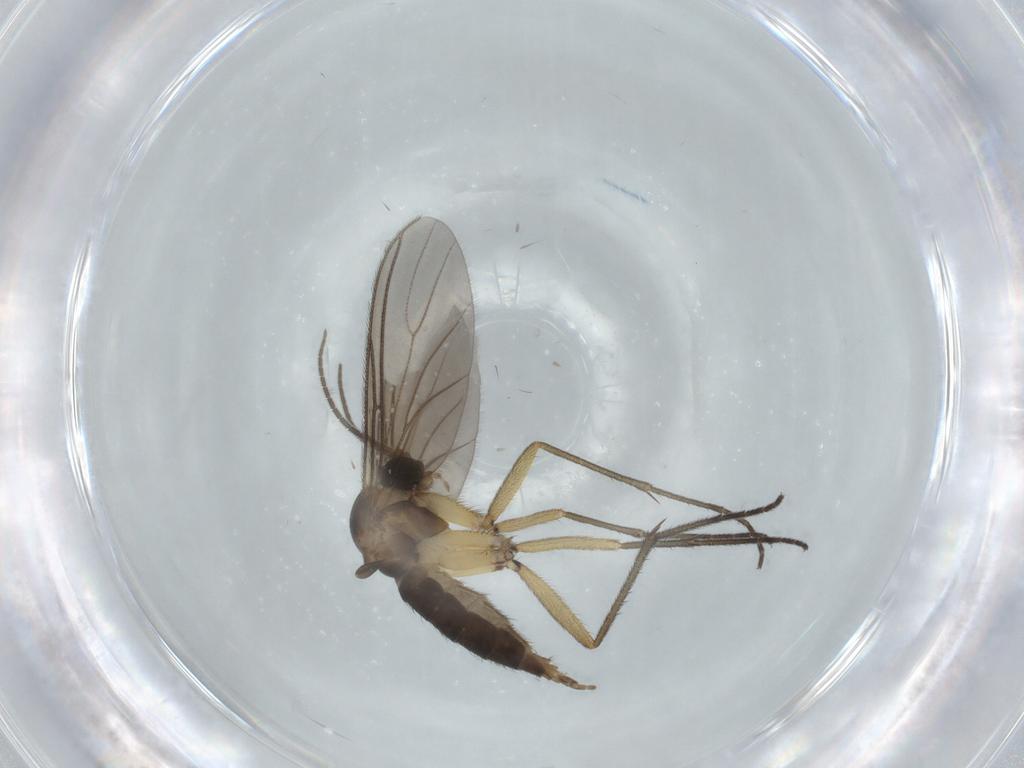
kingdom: Animalia
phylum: Arthropoda
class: Insecta
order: Diptera
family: Sciaridae
